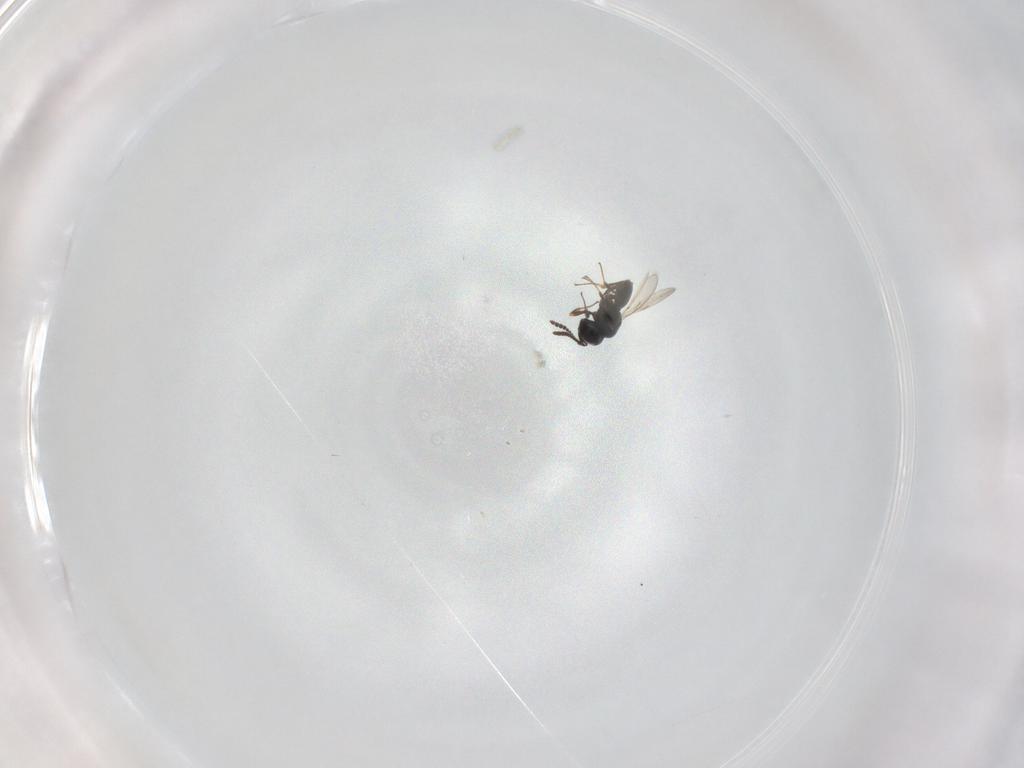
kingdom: Animalia
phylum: Arthropoda
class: Insecta
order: Hymenoptera
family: Scelionidae
